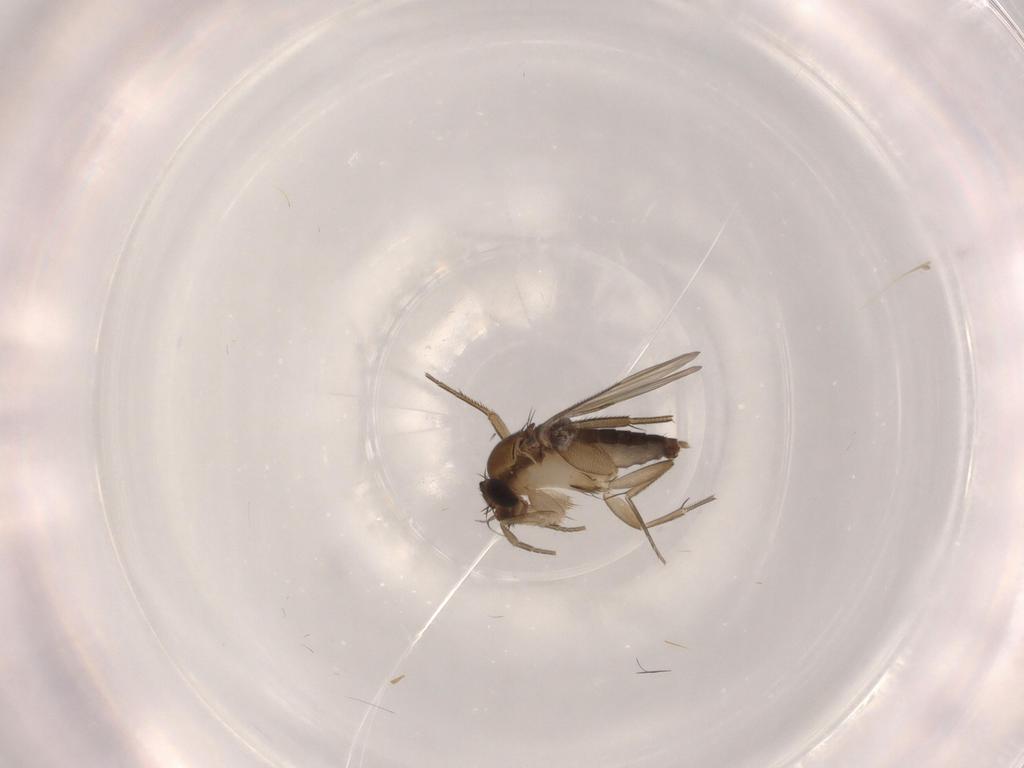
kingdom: Animalia
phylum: Arthropoda
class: Insecta
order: Diptera
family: Phoridae
